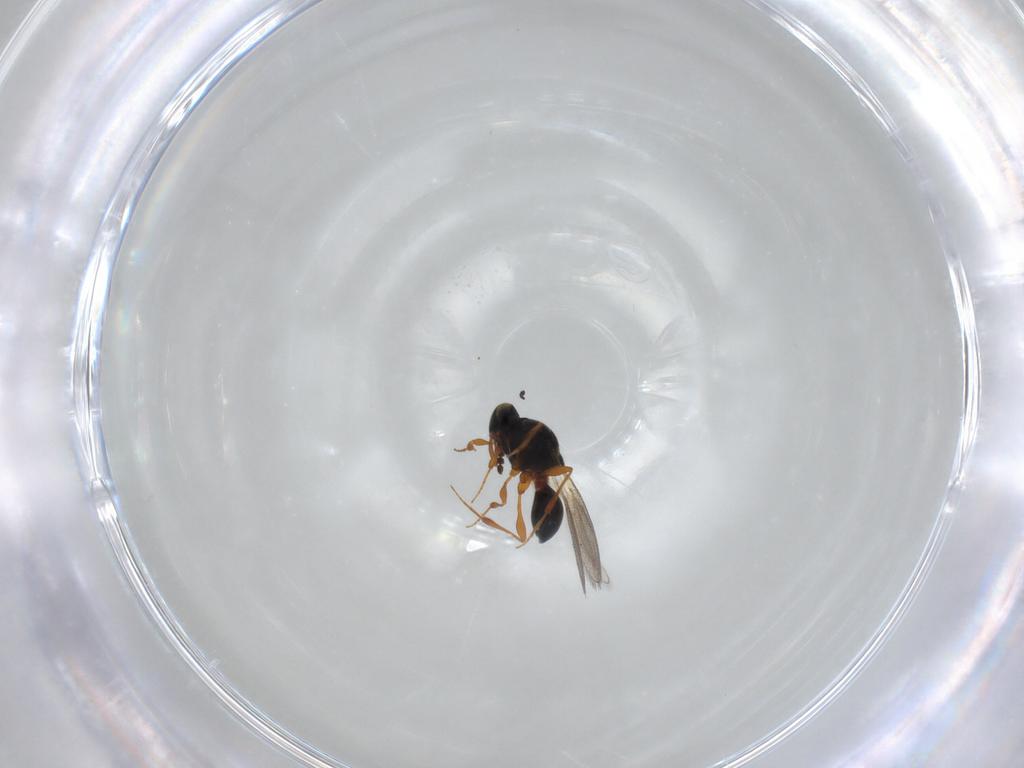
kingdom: Animalia
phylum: Arthropoda
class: Insecta
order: Hymenoptera
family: Platygastridae
